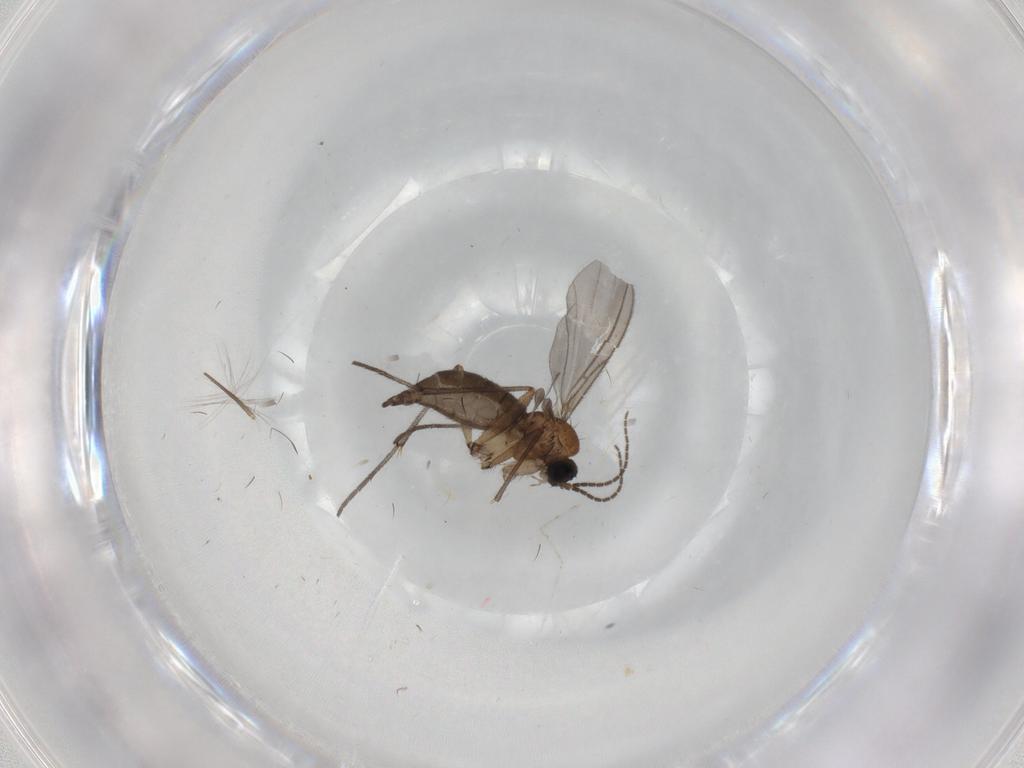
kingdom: Animalia
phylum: Arthropoda
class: Insecta
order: Diptera
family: Sciaridae
